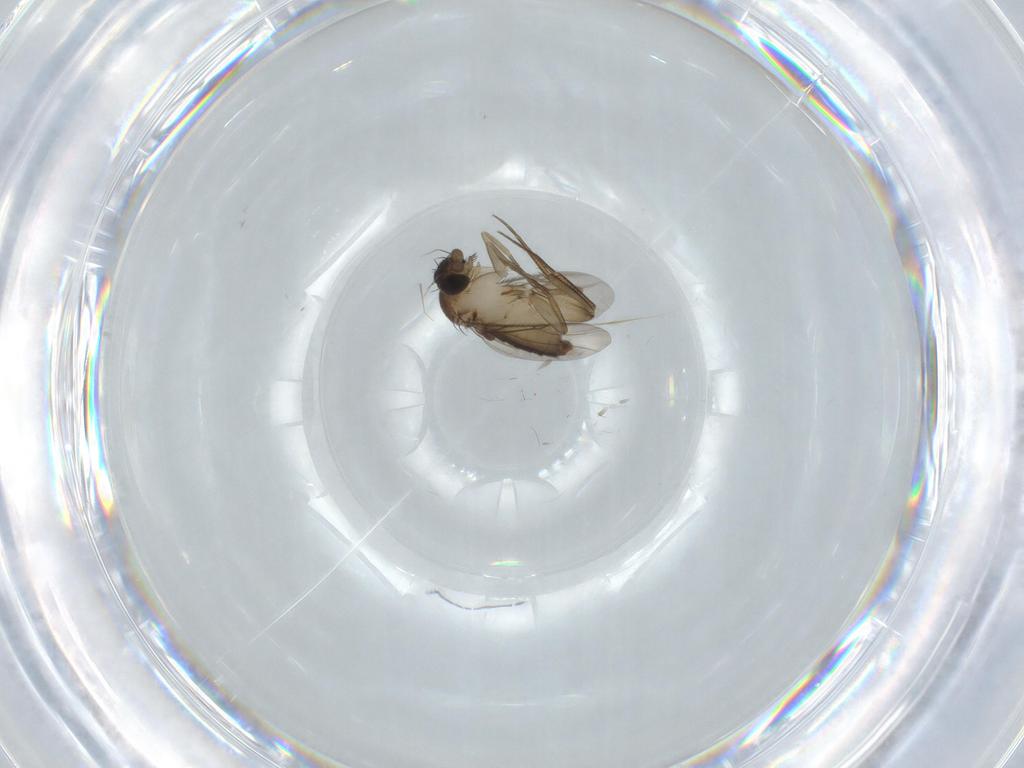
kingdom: Animalia
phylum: Arthropoda
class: Insecta
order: Diptera
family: Phoridae
